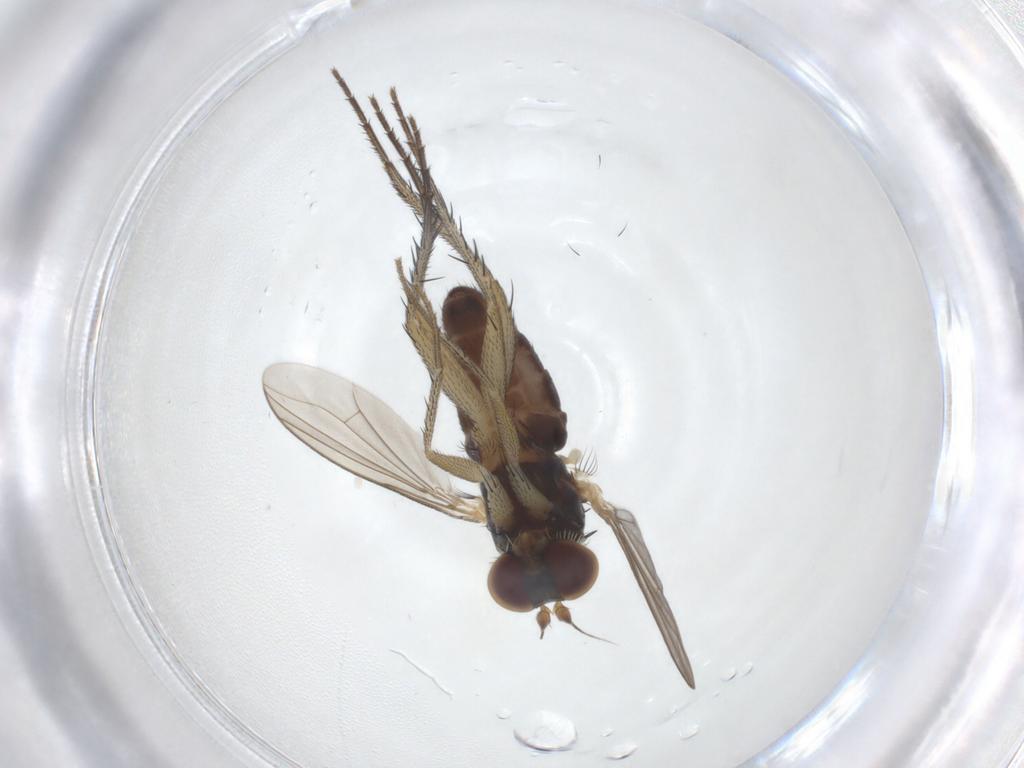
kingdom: Animalia
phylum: Arthropoda
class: Insecta
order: Diptera
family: Dolichopodidae
